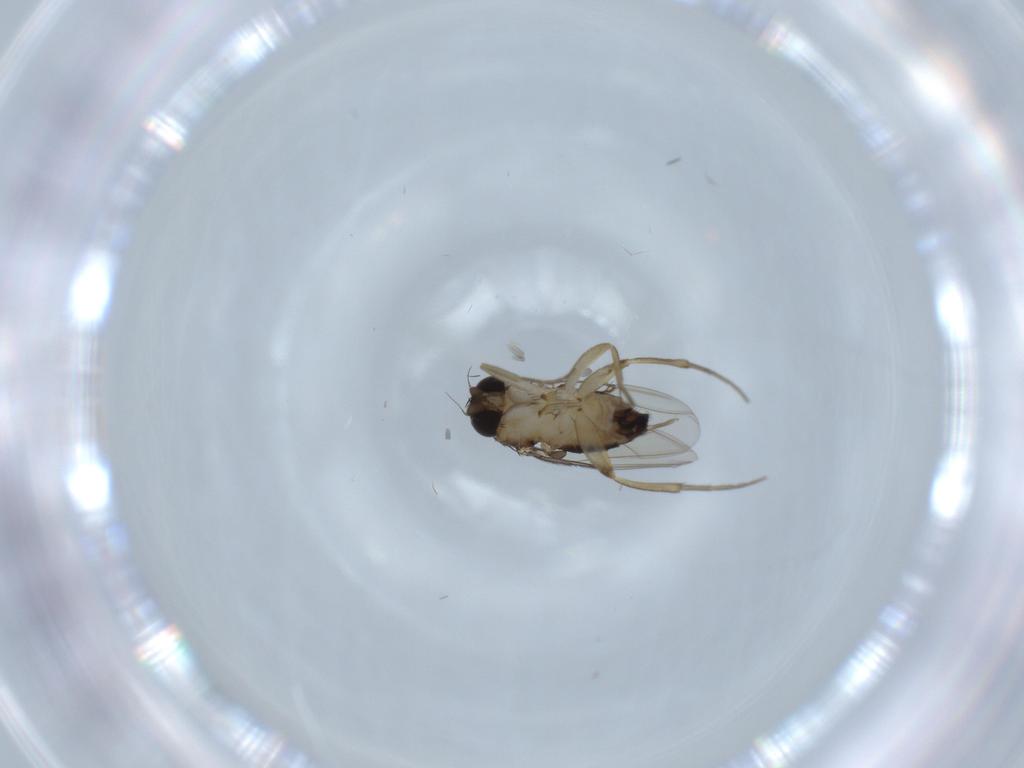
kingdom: Animalia
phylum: Arthropoda
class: Insecta
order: Diptera
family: Phoridae
